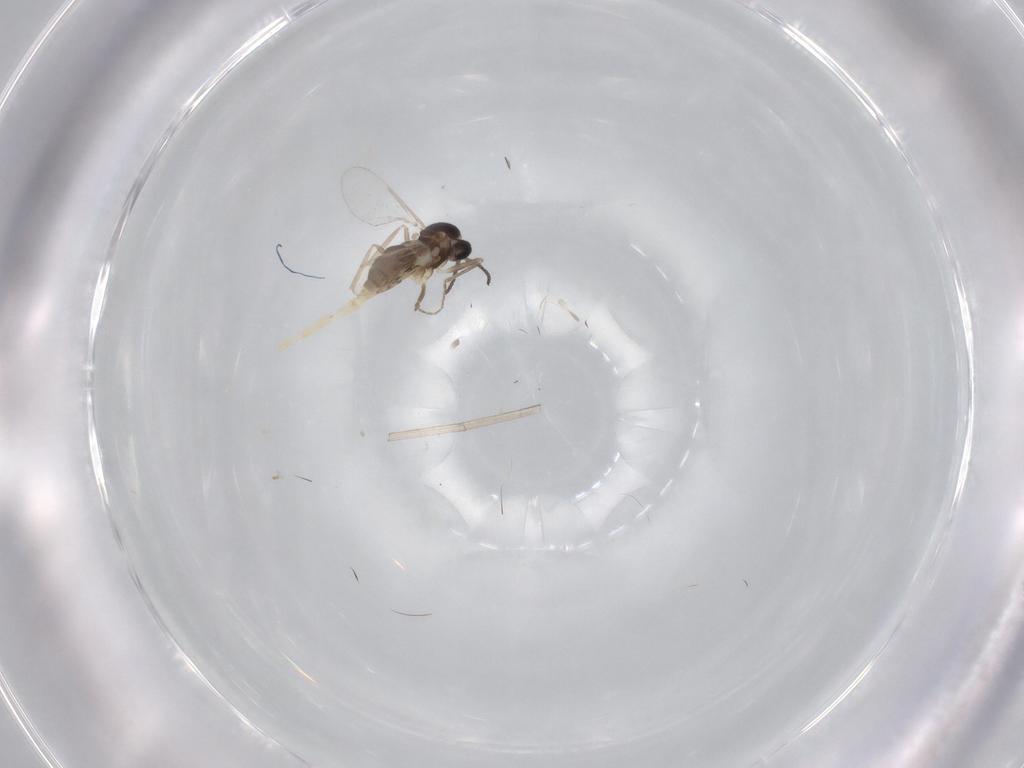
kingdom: Animalia
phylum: Arthropoda
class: Insecta
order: Diptera
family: Cecidomyiidae
